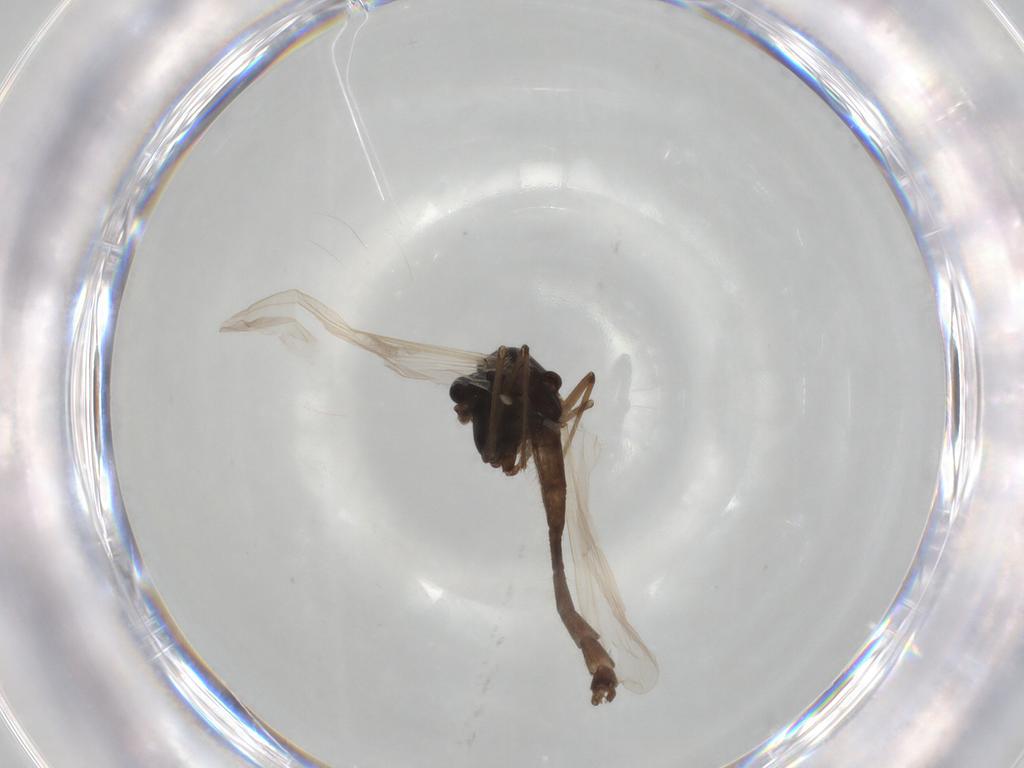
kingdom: Animalia
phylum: Arthropoda
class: Insecta
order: Diptera
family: Chironomidae
